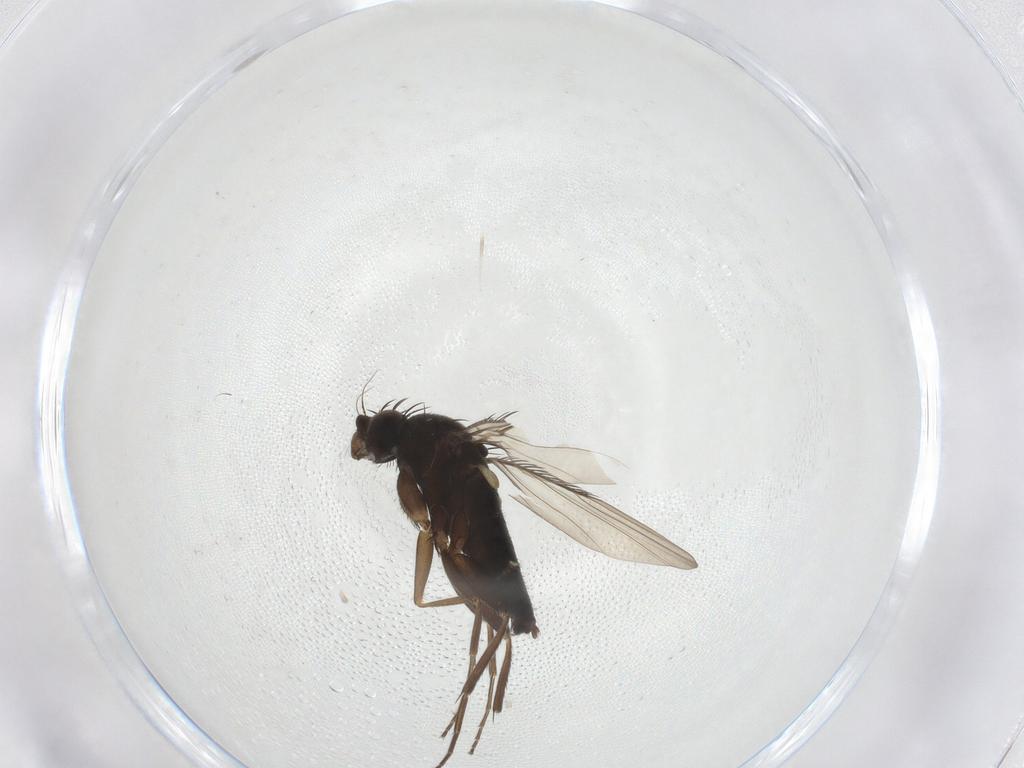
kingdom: Animalia
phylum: Arthropoda
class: Insecta
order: Diptera
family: Phoridae
